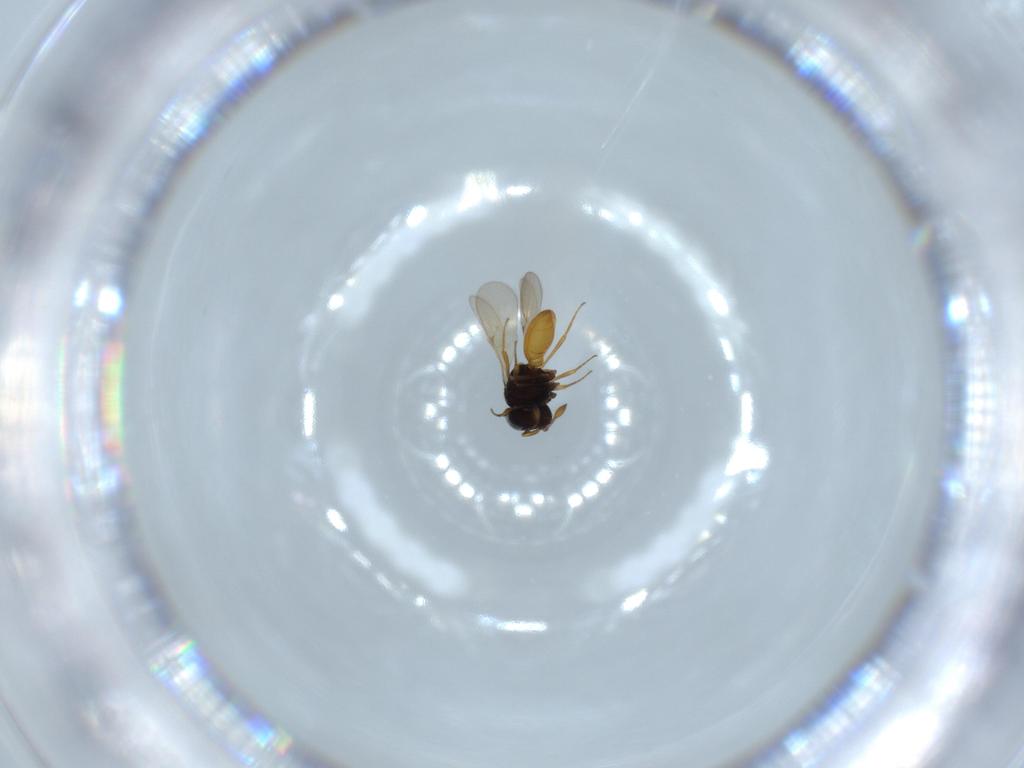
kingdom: Animalia
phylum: Arthropoda
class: Insecta
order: Hymenoptera
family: Scelionidae
